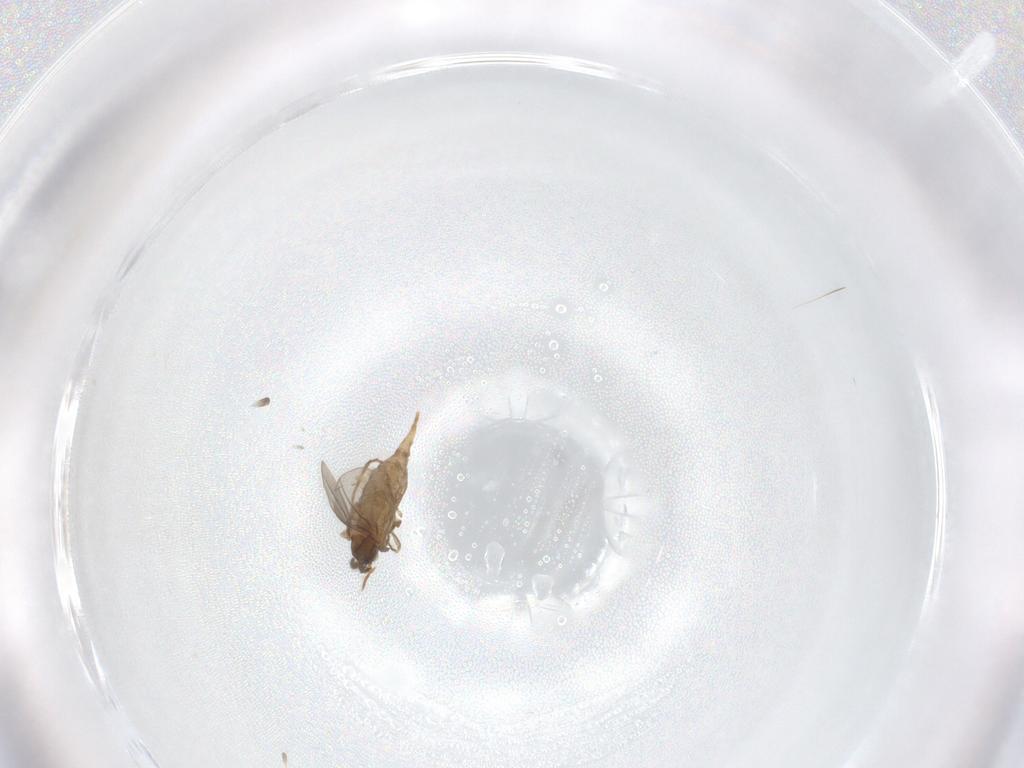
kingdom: Animalia
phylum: Arthropoda
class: Insecta
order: Diptera
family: Cecidomyiidae
